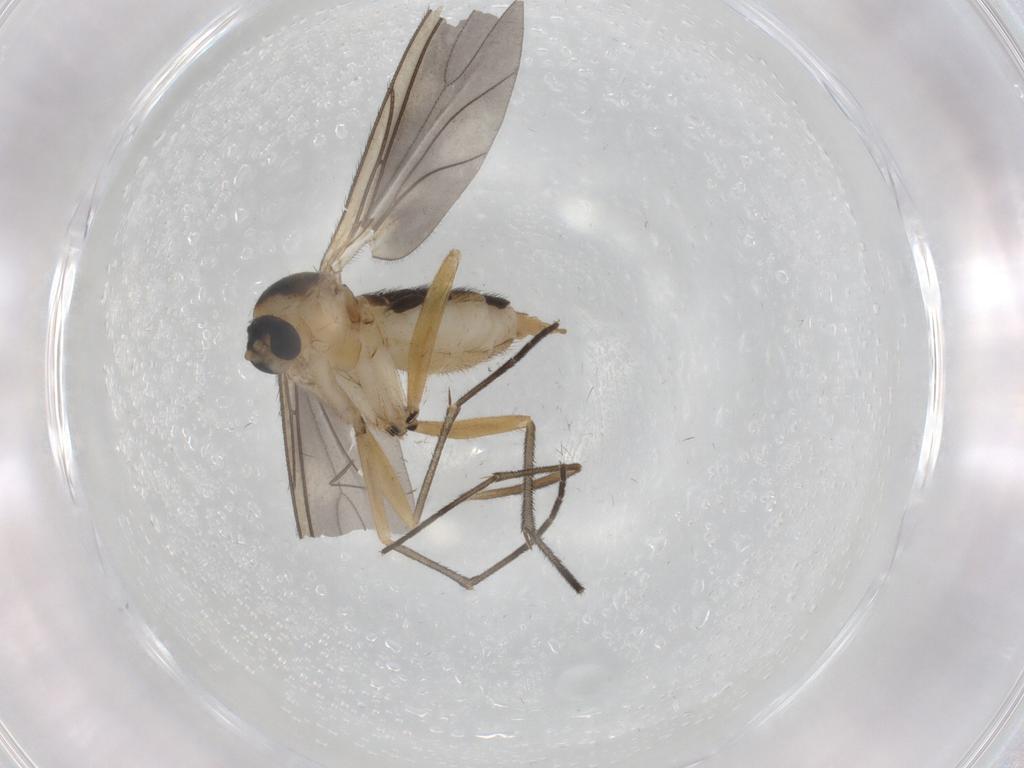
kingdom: Animalia
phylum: Arthropoda
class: Insecta
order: Diptera
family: Sciaridae
